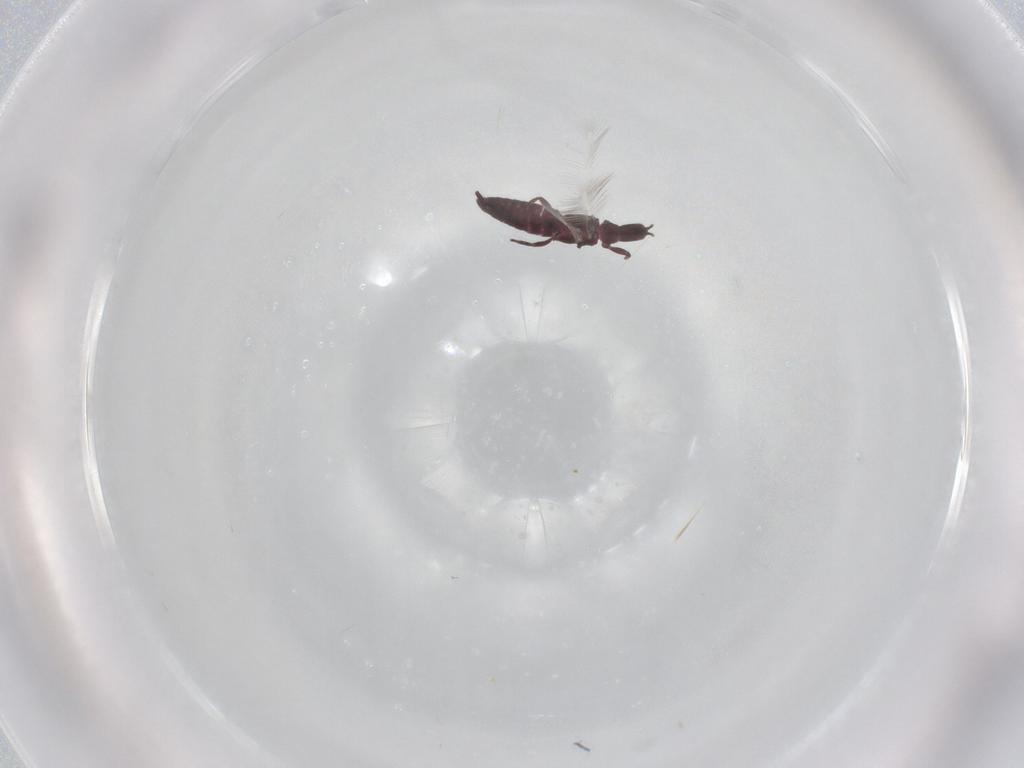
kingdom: Animalia
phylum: Arthropoda
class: Insecta
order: Thysanoptera
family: Phlaeothripidae
